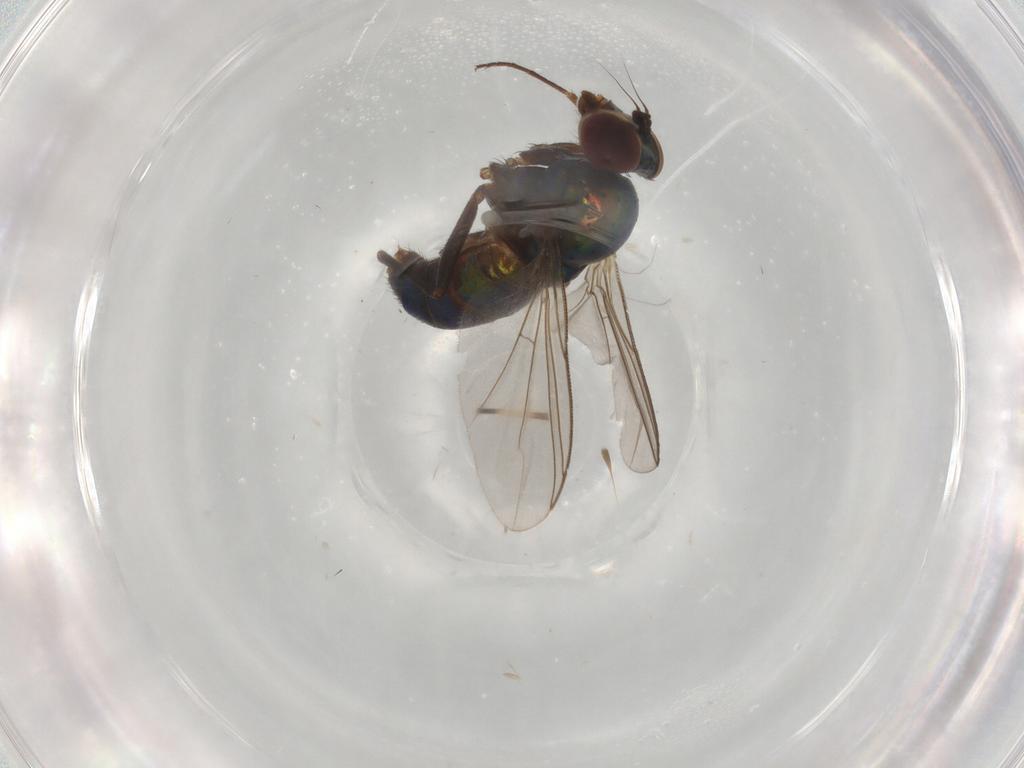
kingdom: Animalia
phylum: Arthropoda
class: Insecta
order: Diptera
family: Dolichopodidae
